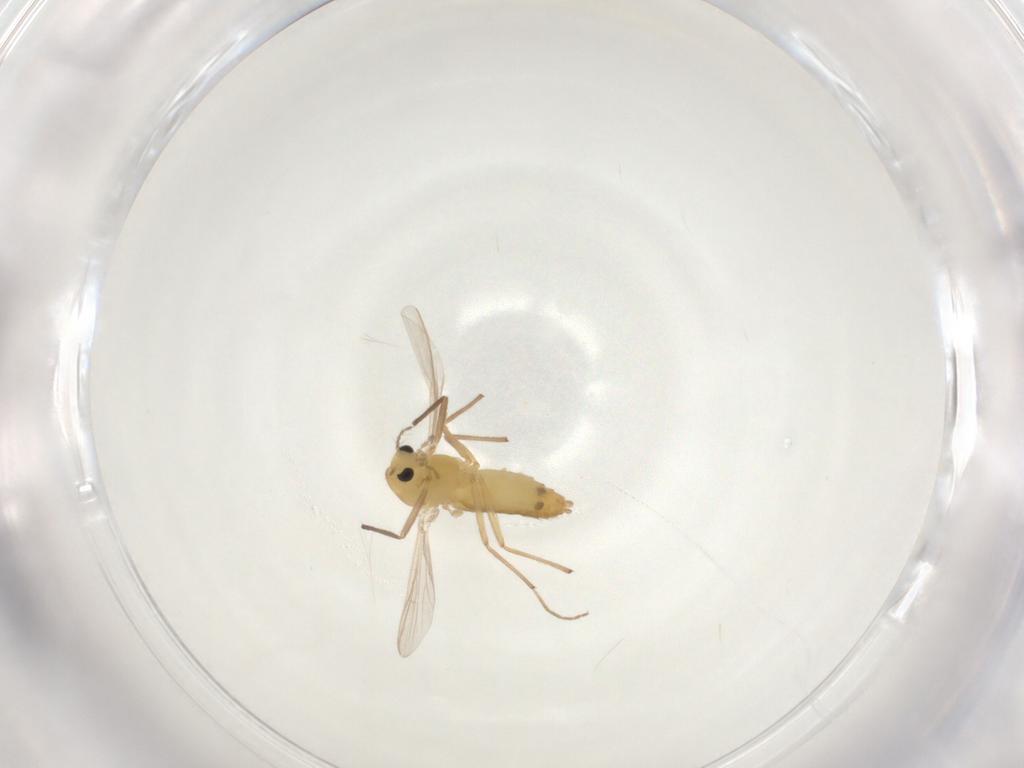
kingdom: Animalia
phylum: Arthropoda
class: Insecta
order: Diptera
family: Chironomidae
